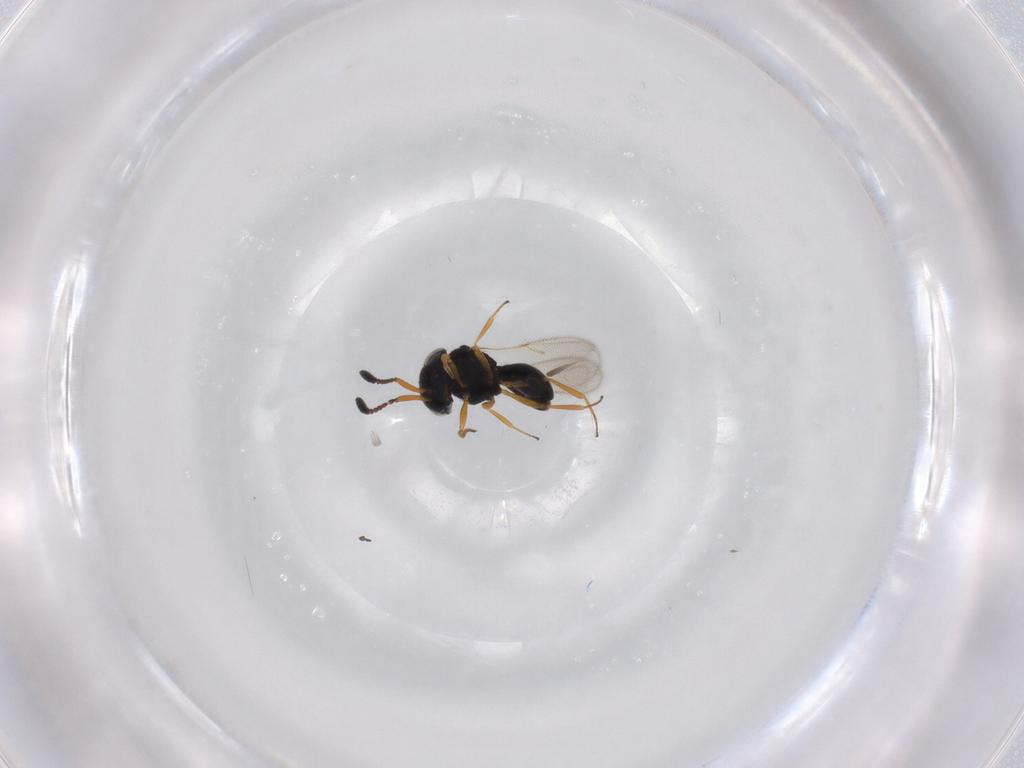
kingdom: Animalia
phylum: Arthropoda
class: Insecta
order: Hymenoptera
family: Scelionidae
